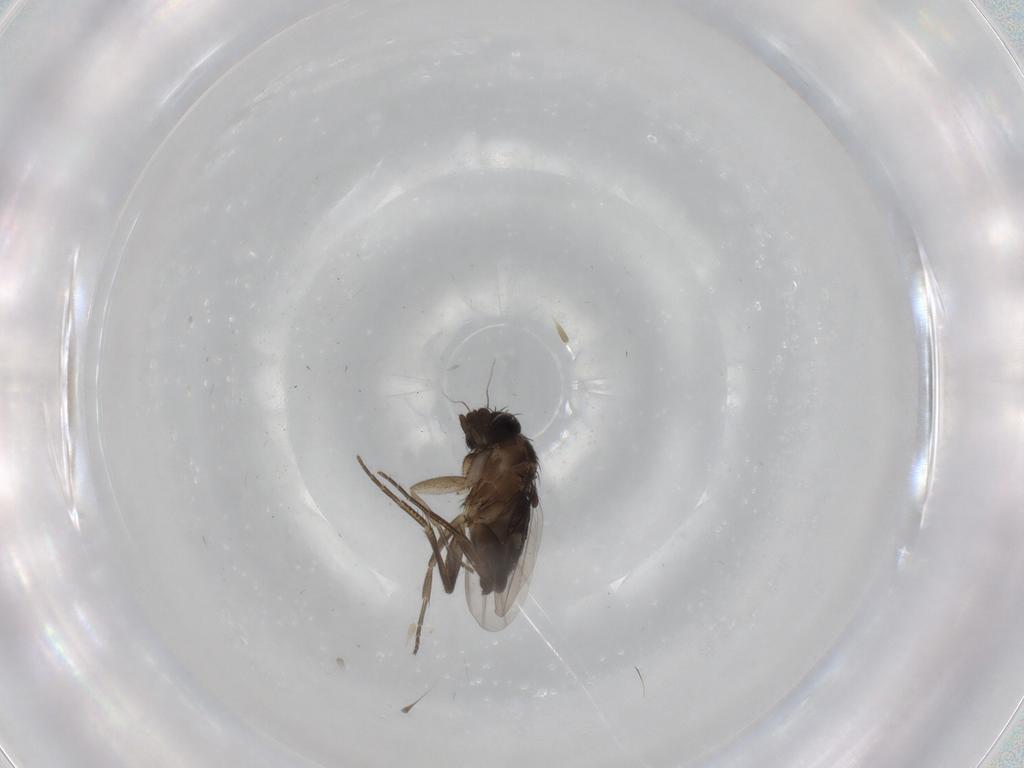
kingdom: Animalia
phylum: Arthropoda
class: Insecta
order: Diptera
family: Phoridae
